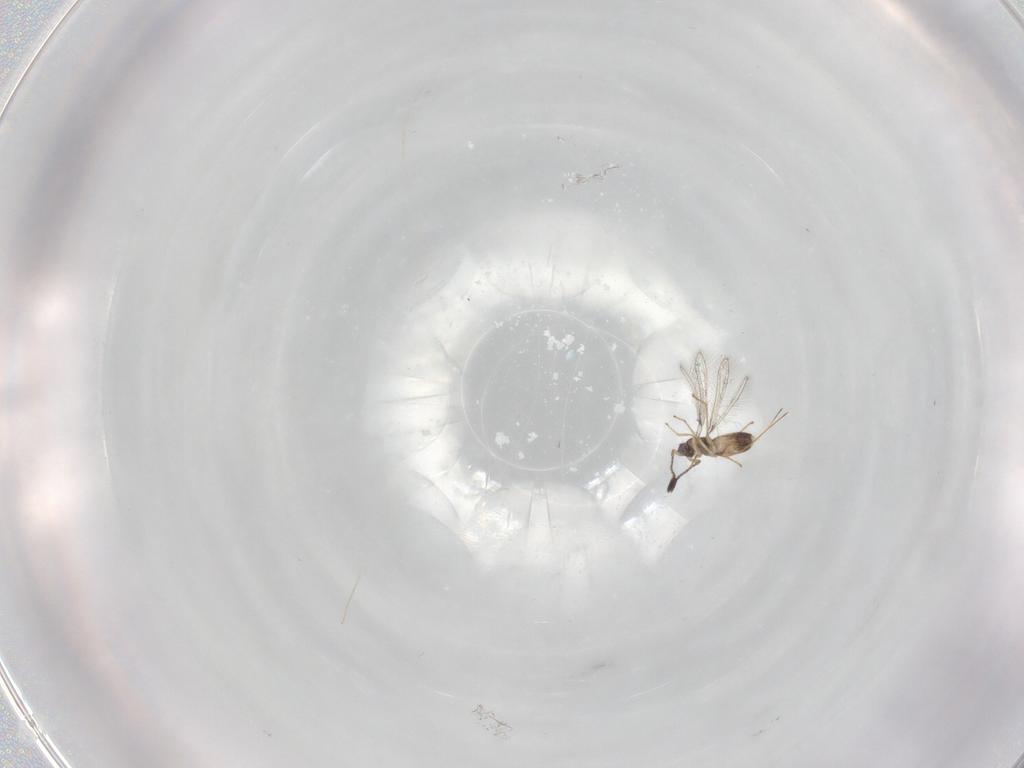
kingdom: Animalia
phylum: Arthropoda
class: Insecta
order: Hymenoptera
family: Mymaridae
